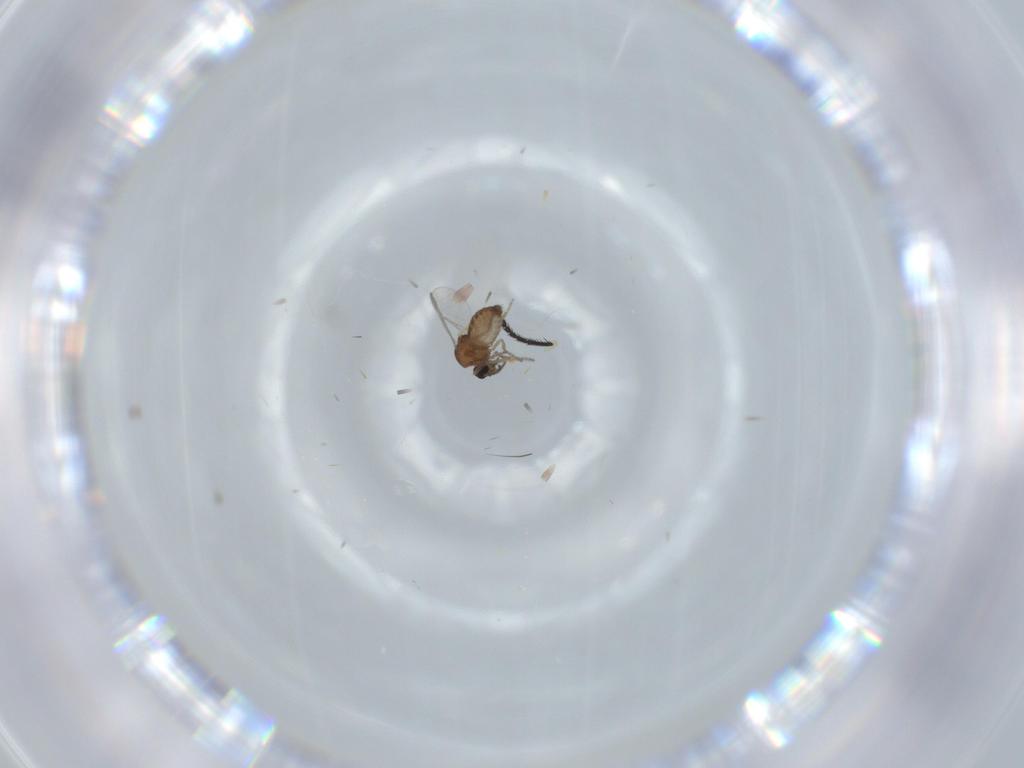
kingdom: Animalia
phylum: Arthropoda
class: Insecta
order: Diptera
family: Ceratopogonidae
